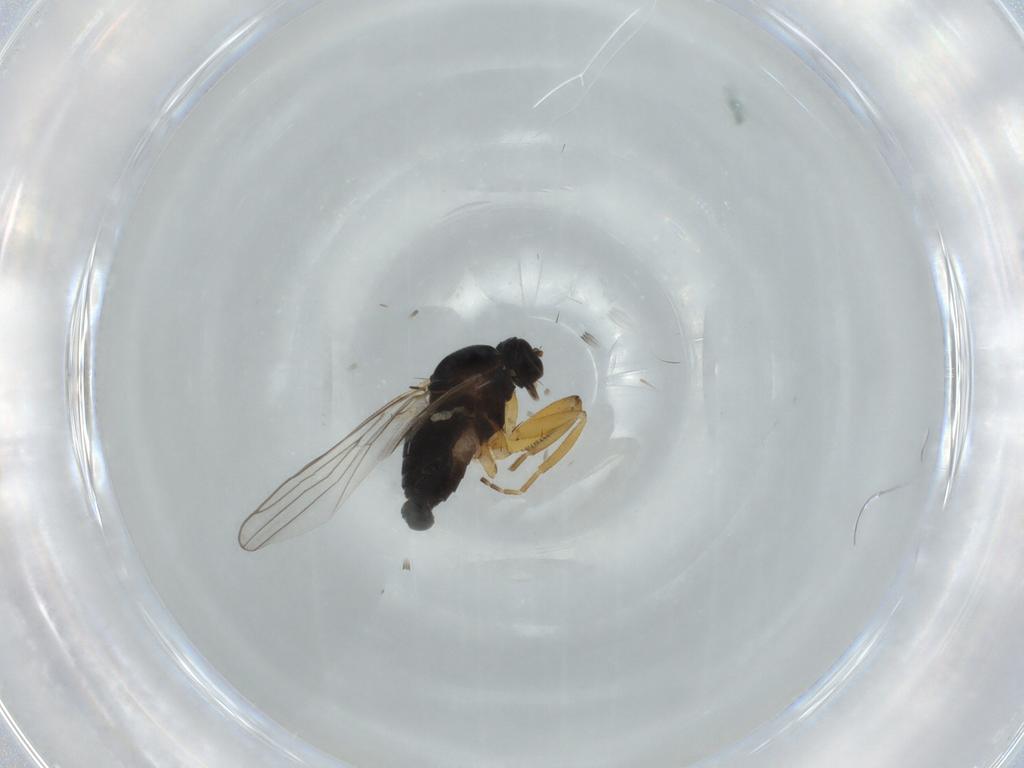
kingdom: Animalia
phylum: Arthropoda
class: Insecta
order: Diptera
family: Hybotidae
